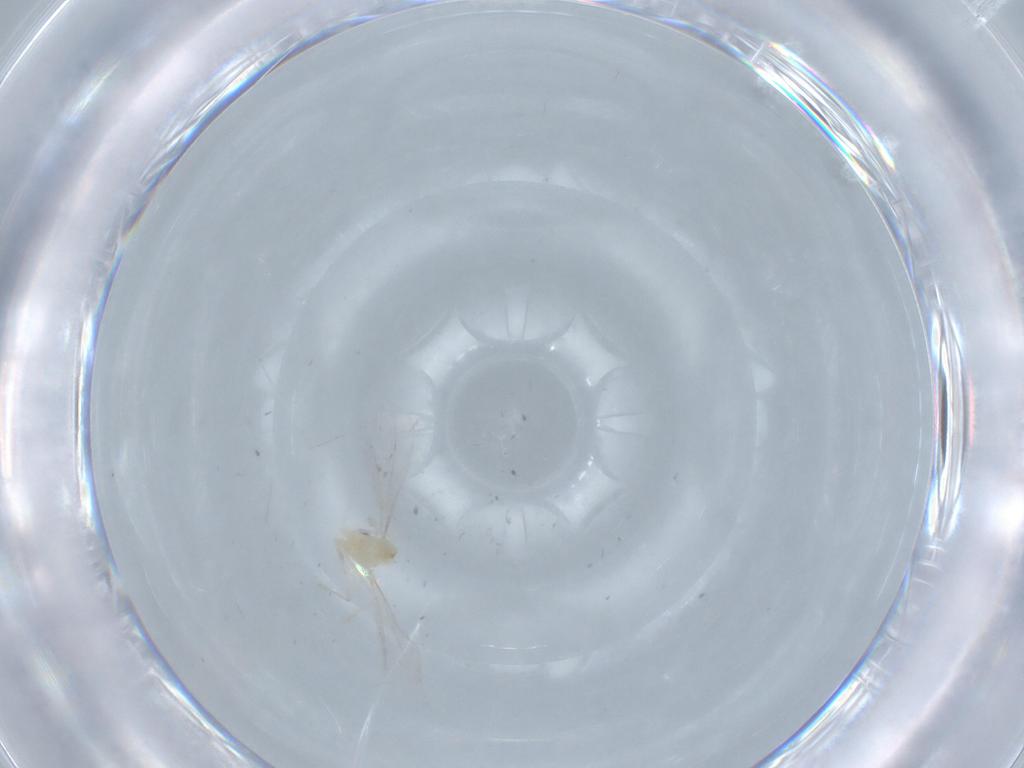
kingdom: Animalia
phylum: Arthropoda
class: Insecta
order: Diptera
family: Cecidomyiidae
